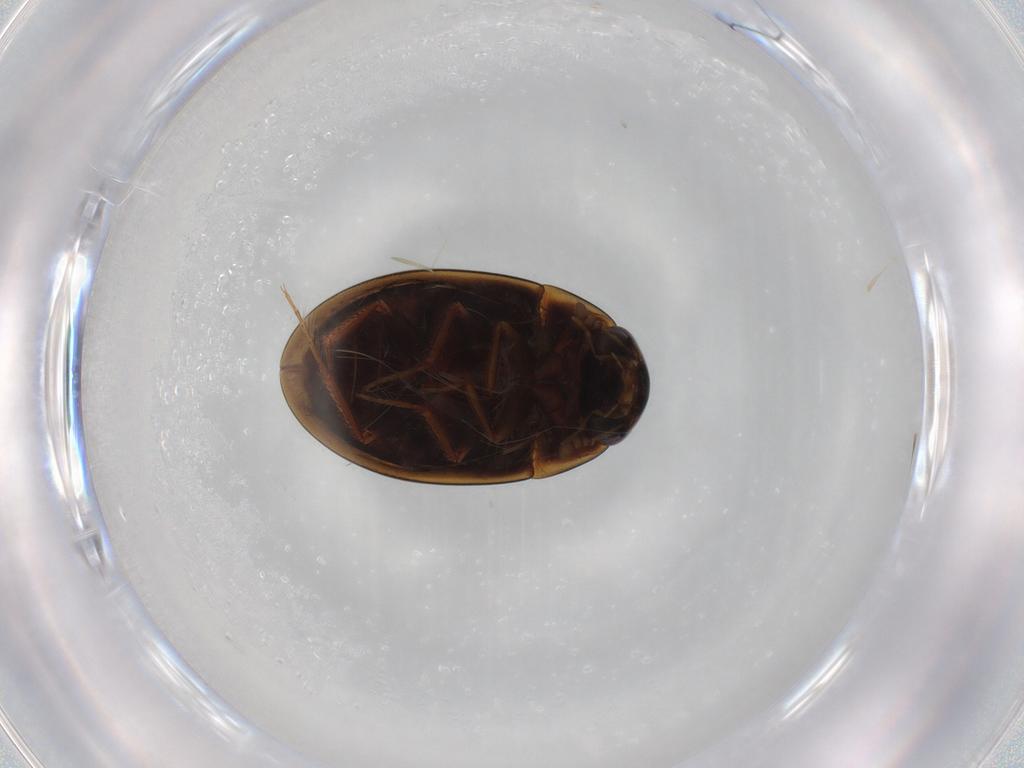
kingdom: Animalia
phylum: Arthropoda
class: Insecta
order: Coleoptera
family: Hydrophilidae
